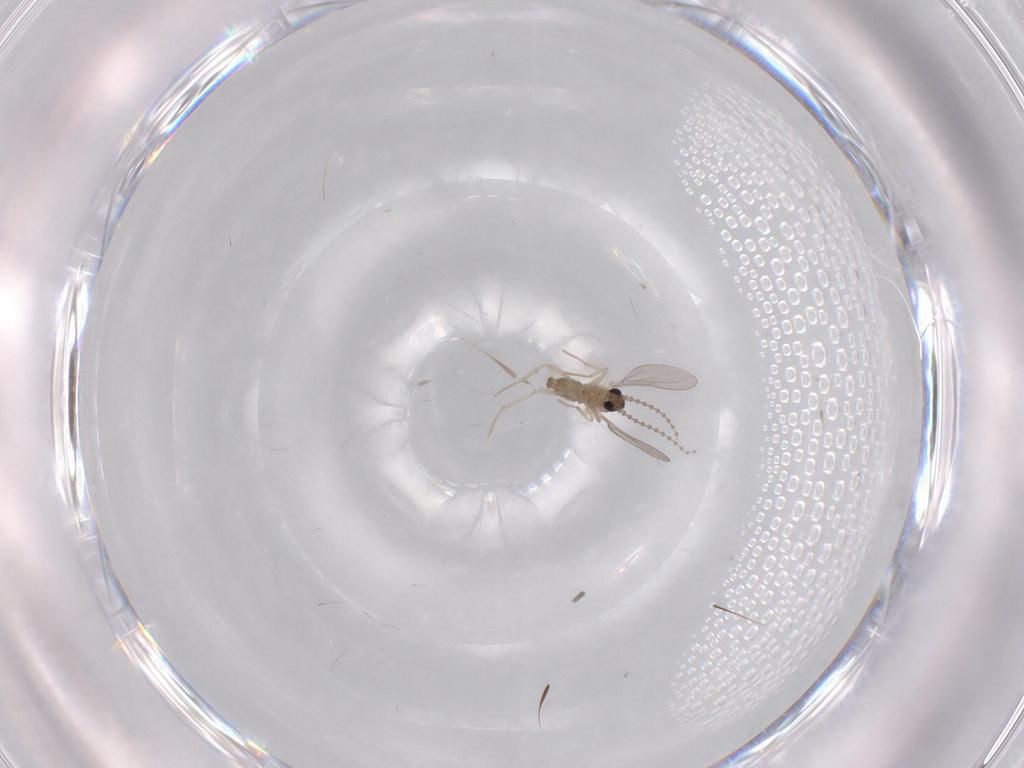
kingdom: Animalia
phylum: Arthropoda
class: Insecta
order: Diptera
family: Cecidomyiidae
